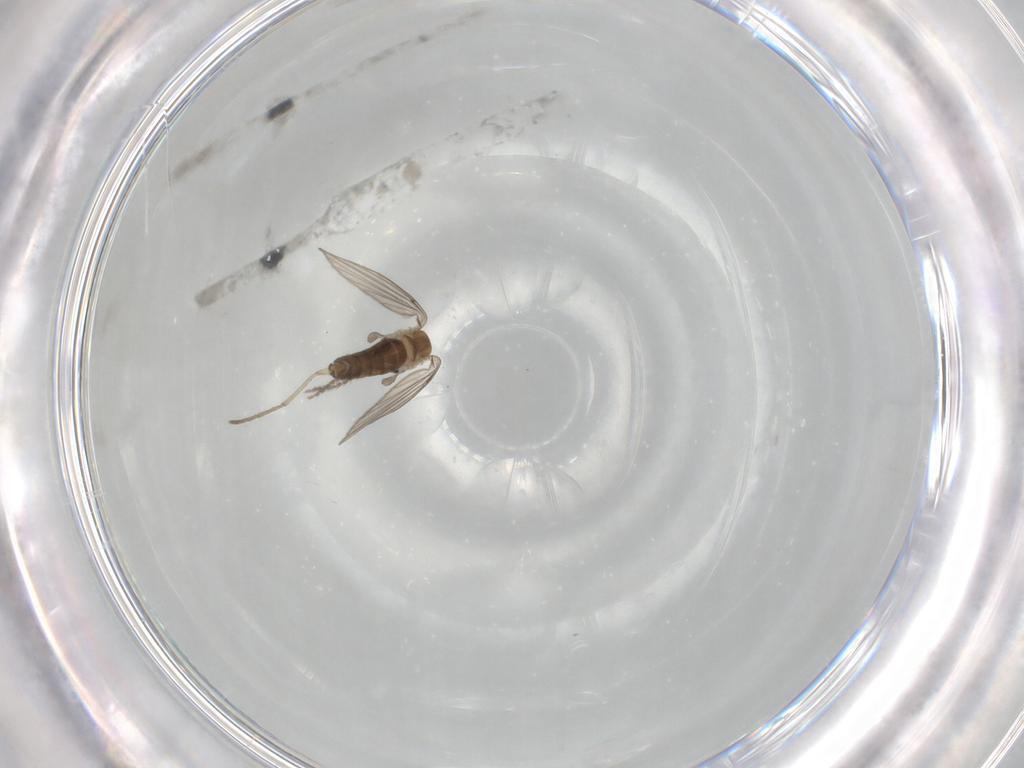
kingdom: Animalia
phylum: Arthropoda
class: Insecta
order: Diptera
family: Psychodidae
